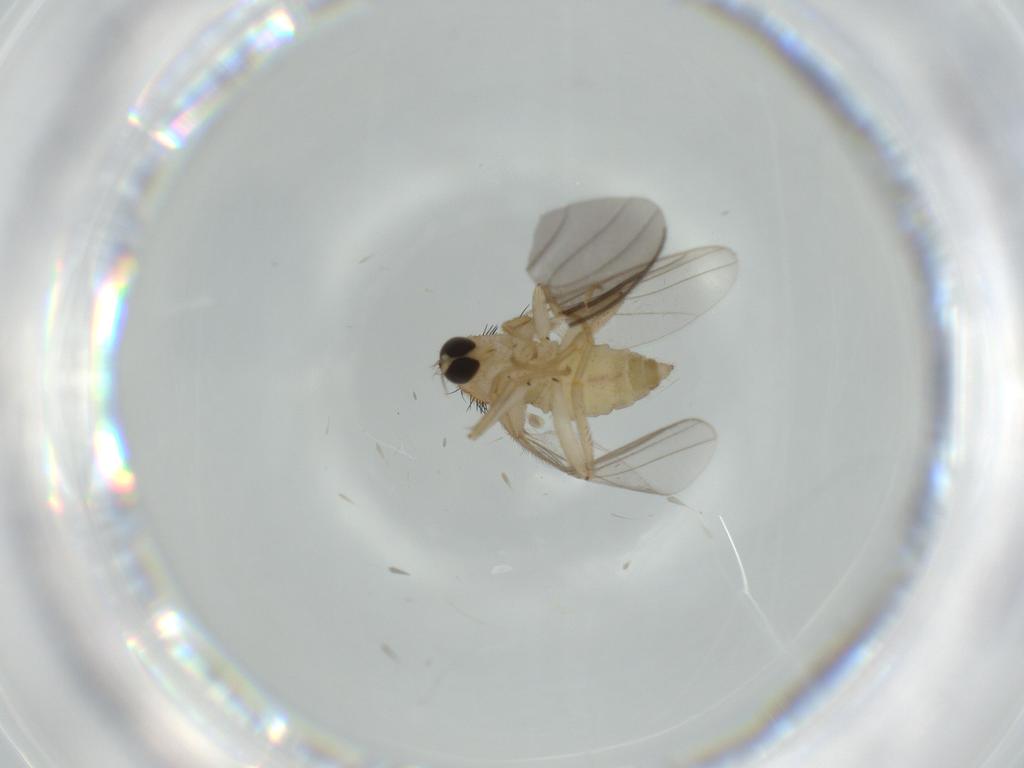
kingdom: Animalia
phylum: Arthropoda
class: Insecta
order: Diptera
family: Hybotidae
